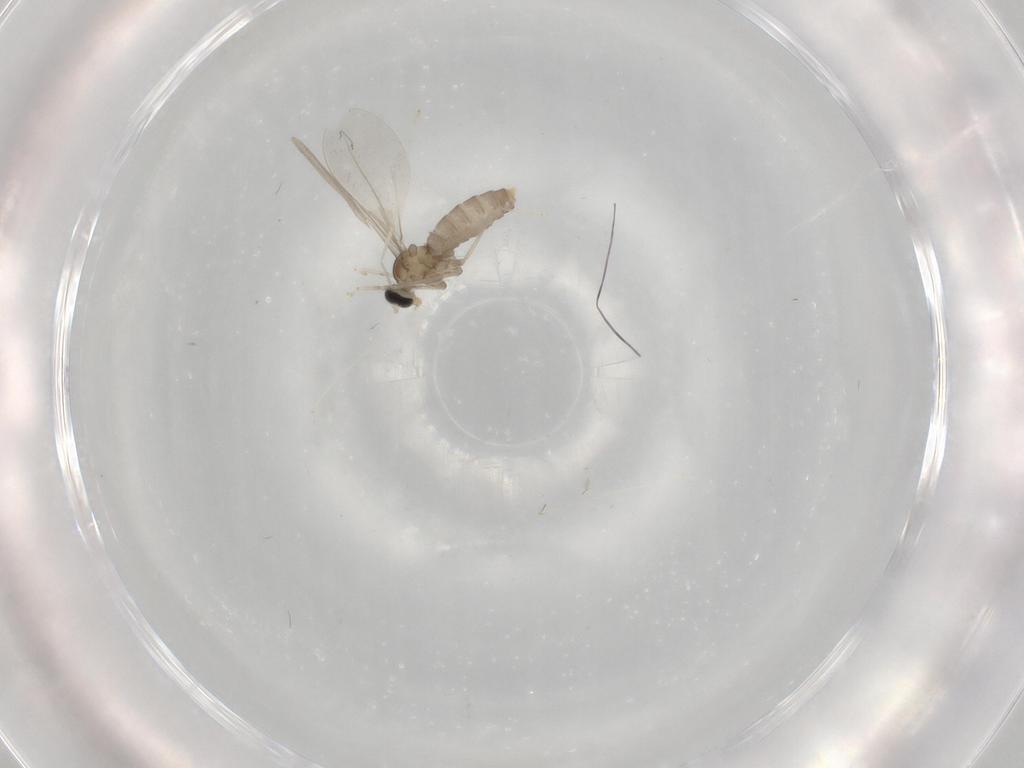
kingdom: Animalia
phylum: Arthropoda
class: Insecta
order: Diptera
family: Cecidomyiidae
